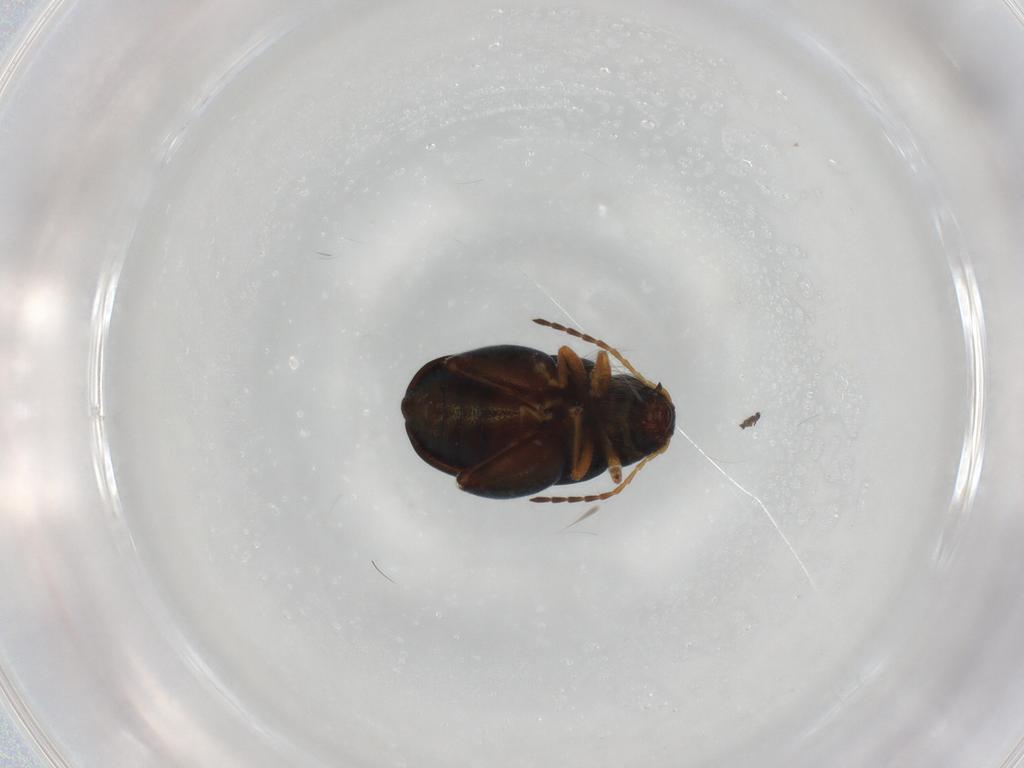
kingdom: Animalia
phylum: Arthropoda
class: Insecta
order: Coleoptera
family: Chrysomelidae
